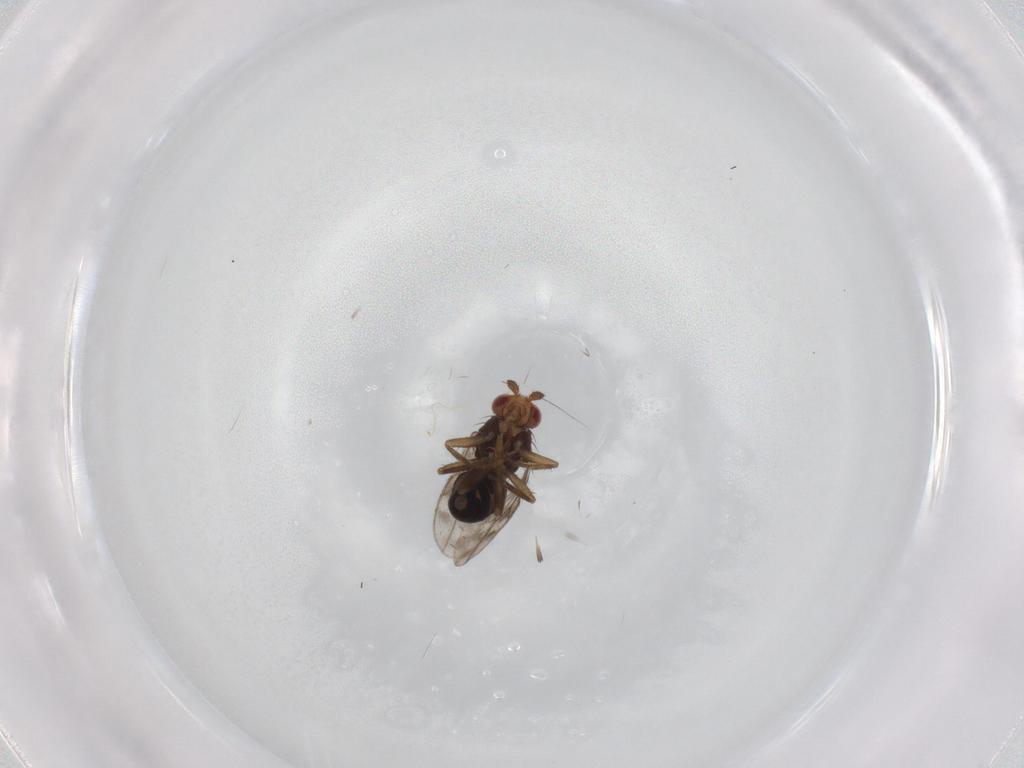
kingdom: Animalia
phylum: Arthropoda
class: Insecta
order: Diptera
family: Sphaeroceridae
